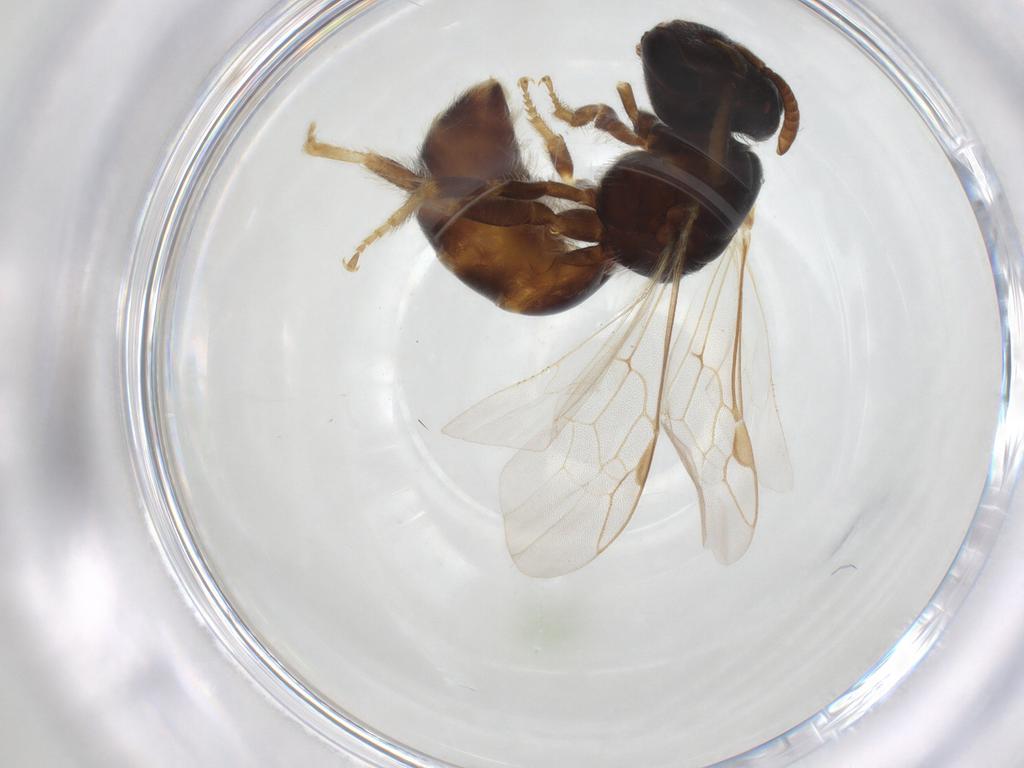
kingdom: Animalia
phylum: Arthropoda
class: Insecta
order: Hymenoptera
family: Halictidae
